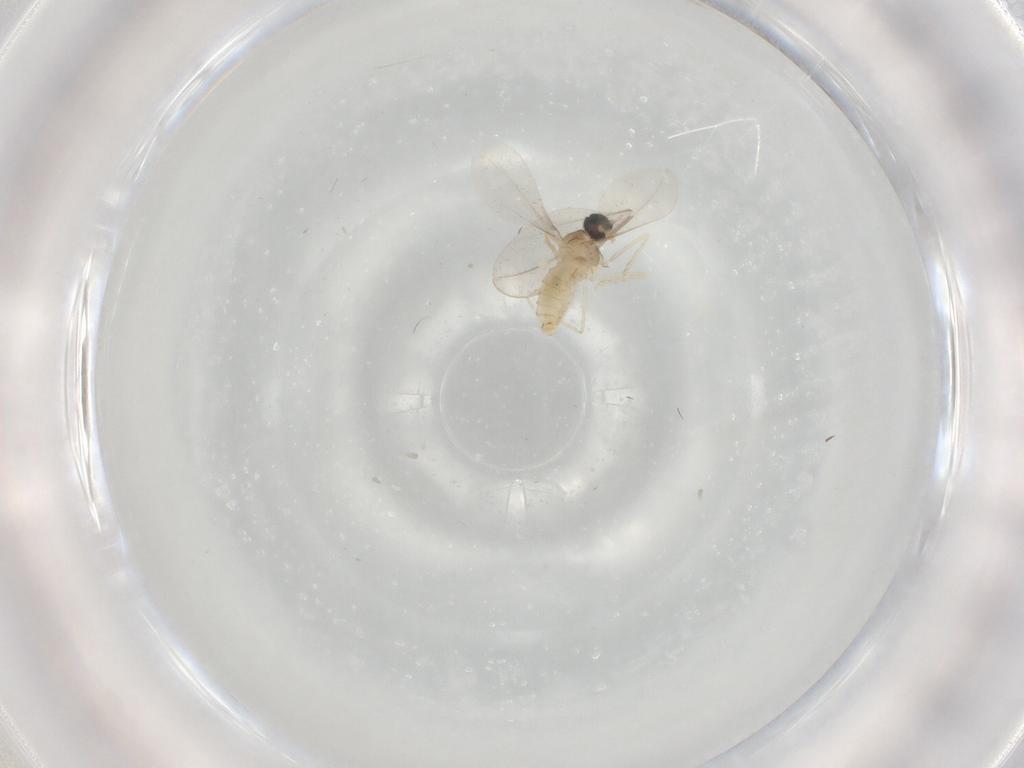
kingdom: Animalia
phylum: Arthropoda
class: Insecta
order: Diptera
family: Cecidomyiidae
